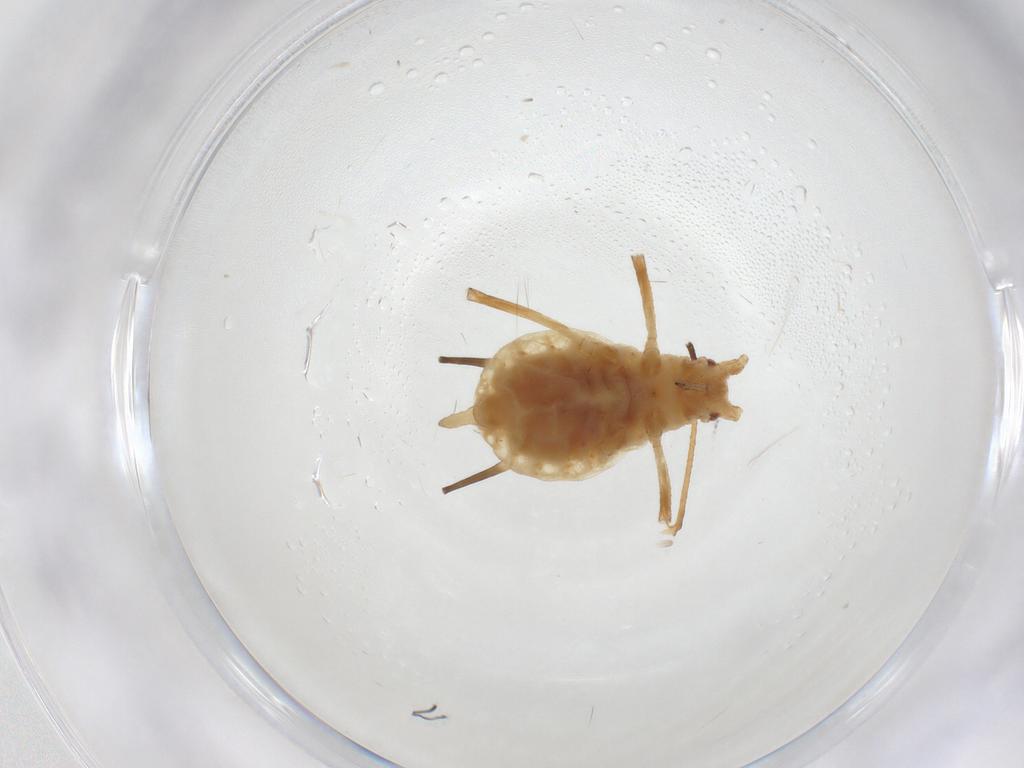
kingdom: Animalia
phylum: Arthropoda
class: Insecta
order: Hemiptera
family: Aphididae
